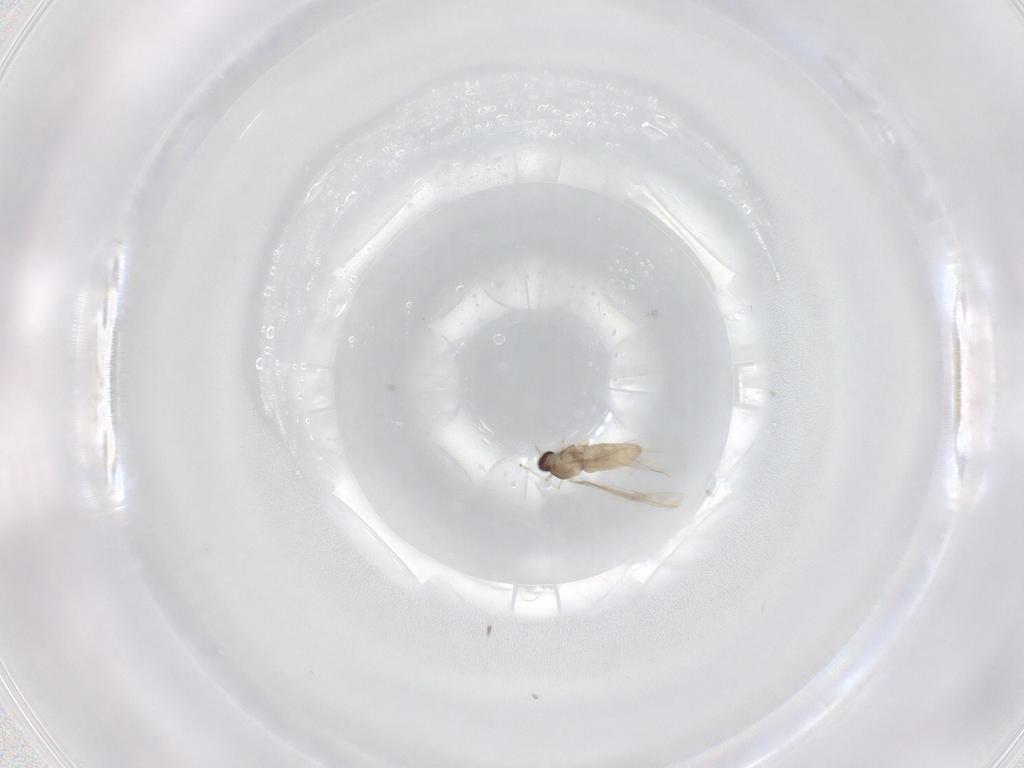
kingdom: Animalia
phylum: Arthropoda
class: Insecta
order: Diptera
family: Cecidomyiidae
